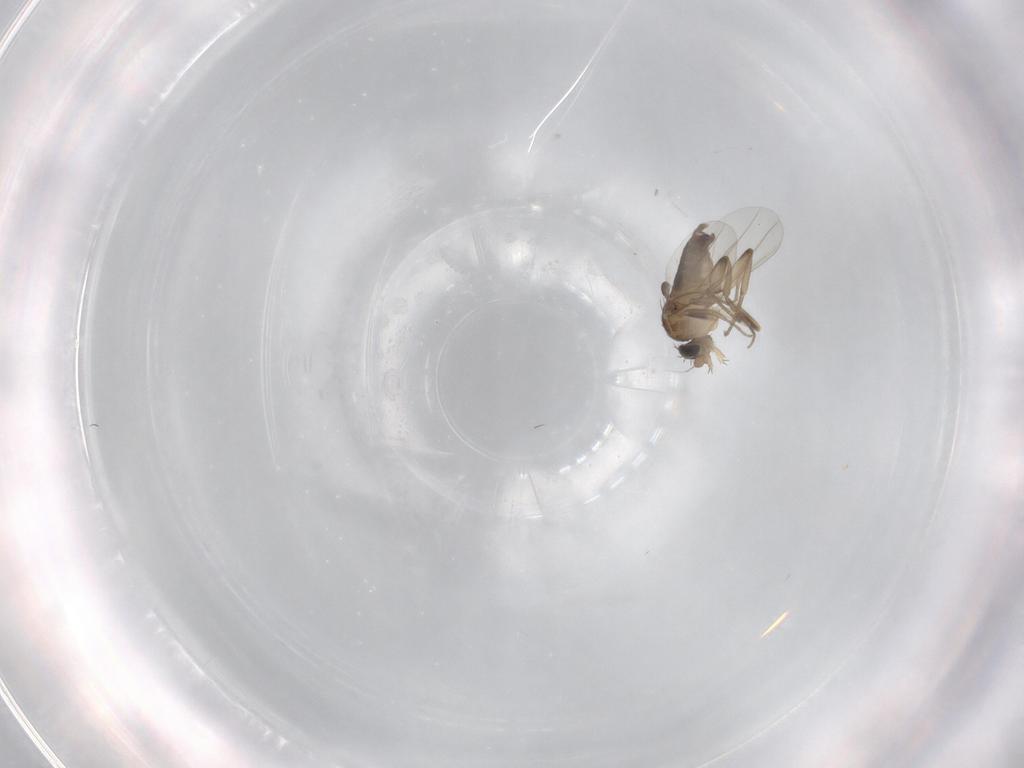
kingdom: Animalia
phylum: Arthropoda
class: Insecta
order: Diptera
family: Phoridae
